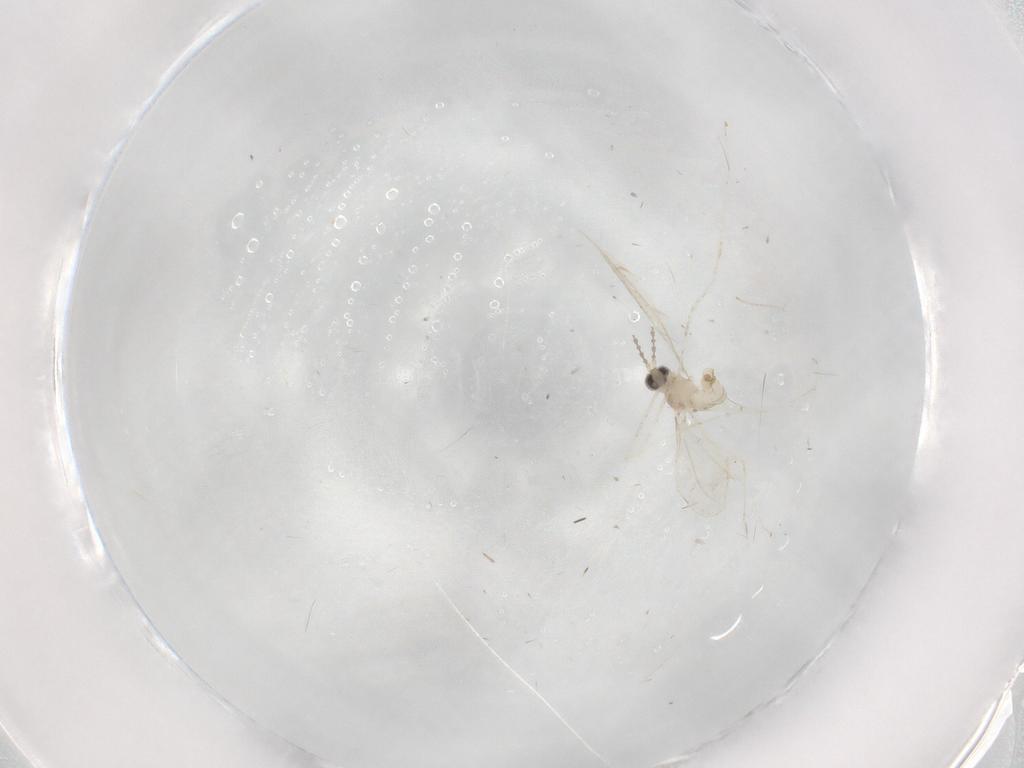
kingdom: Animalia
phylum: Arthropoda
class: Insecta
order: Diptera
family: Cecidomyiidae
